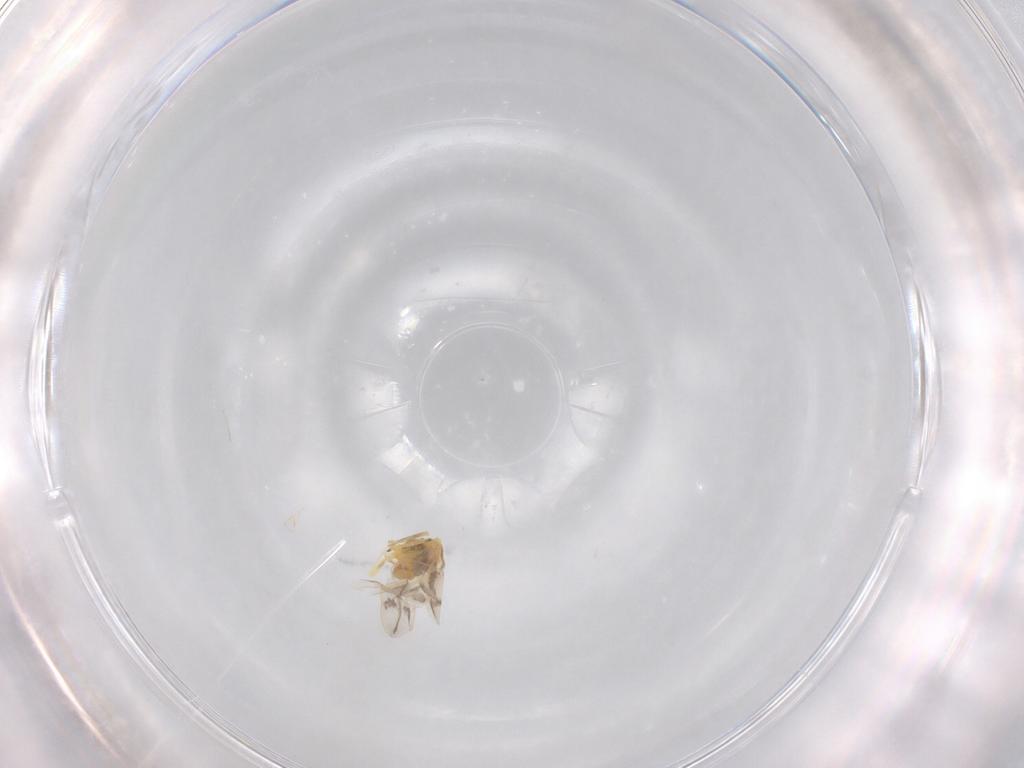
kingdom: Animalia
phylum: Arthropoda
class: Insecta
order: Hemiptera
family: Aleyrodidae
